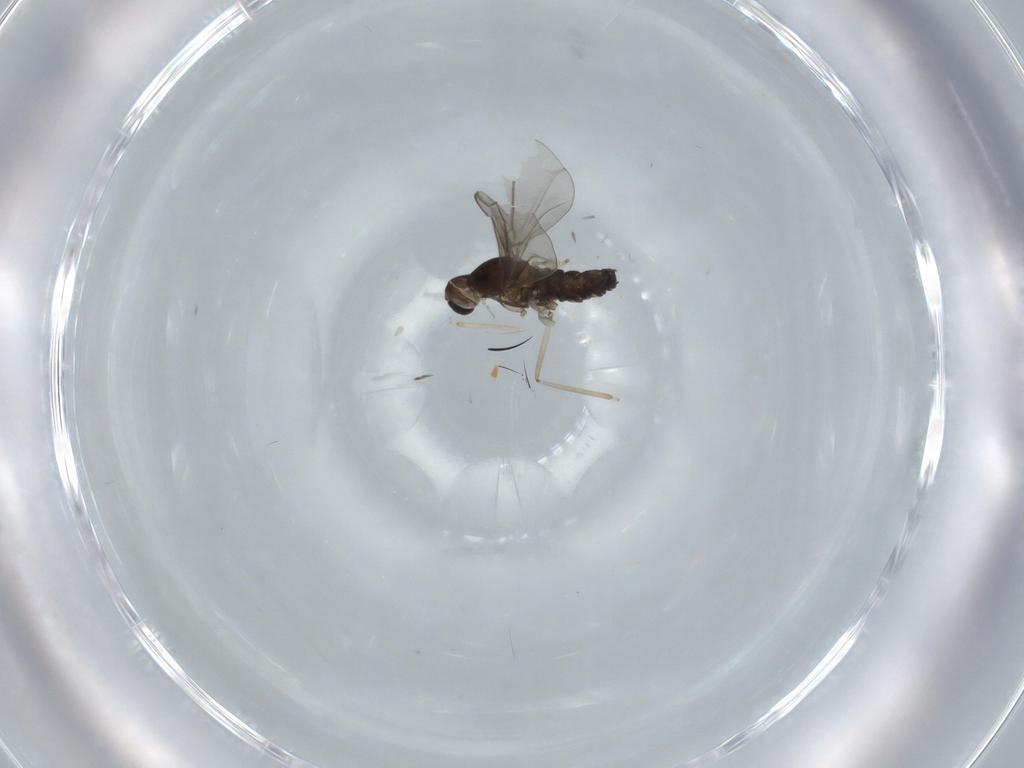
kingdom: Animalia
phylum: Arthropoda
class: Insecta
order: Diptera
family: Cecidomyiidae
